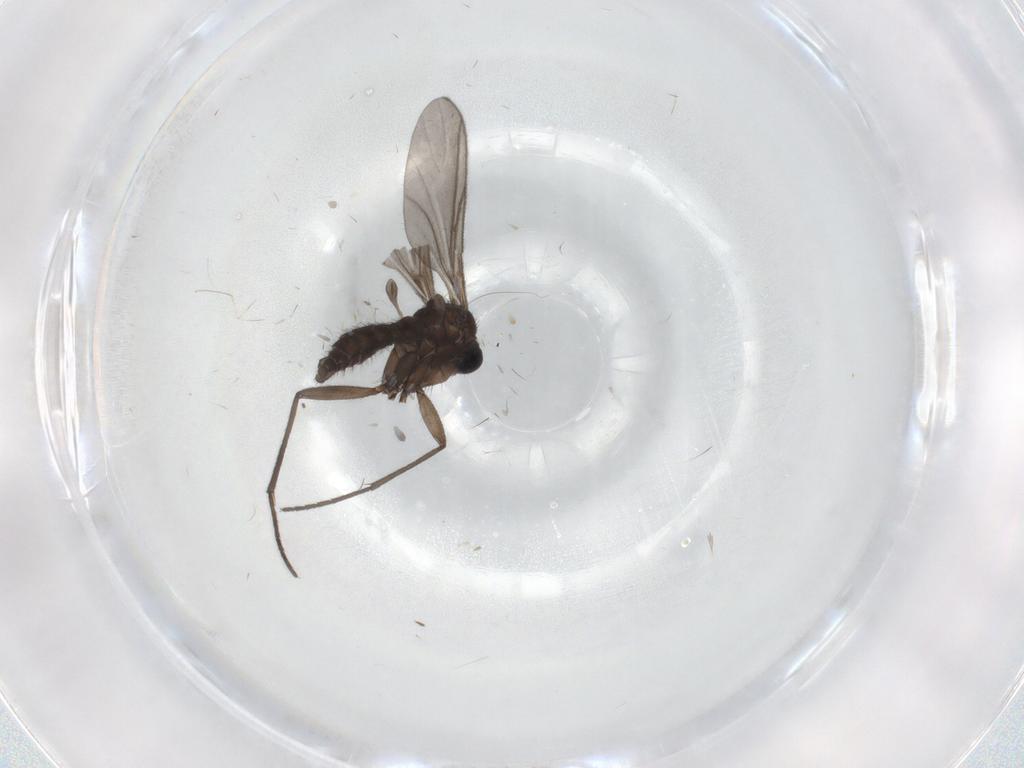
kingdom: Animalia
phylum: Arthropoda
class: Insecta
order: Diptera
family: Sciaridae
